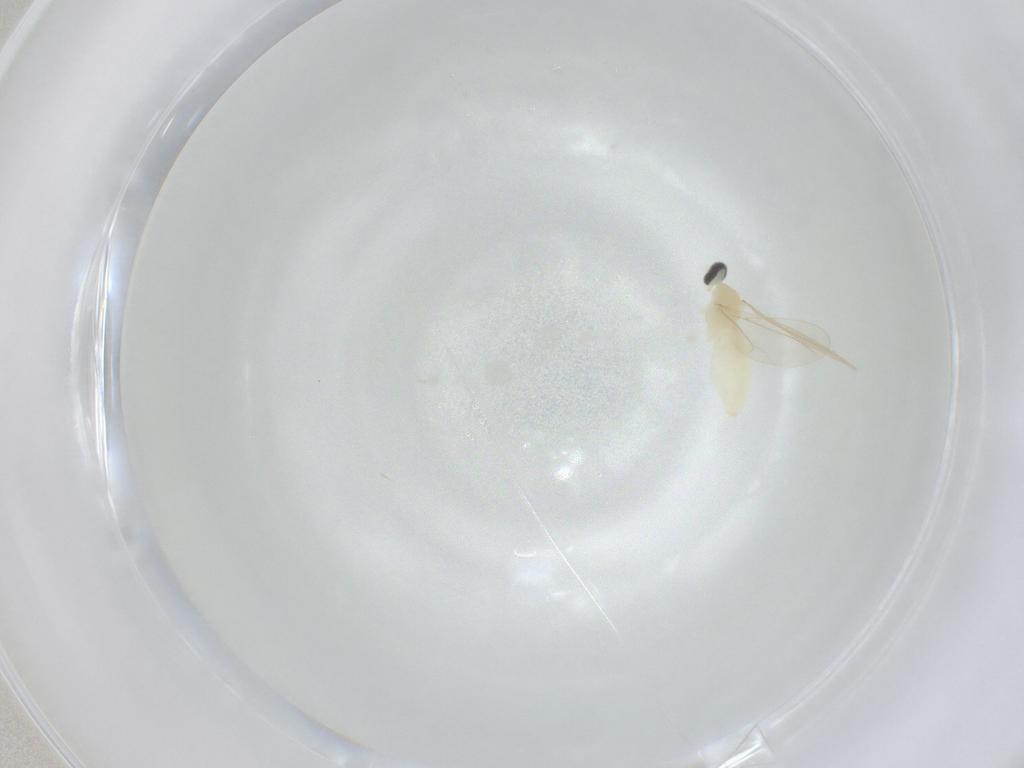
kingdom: Animalia
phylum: Arthropoda
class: Insecta
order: Diptera
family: Cecidomyiidae
